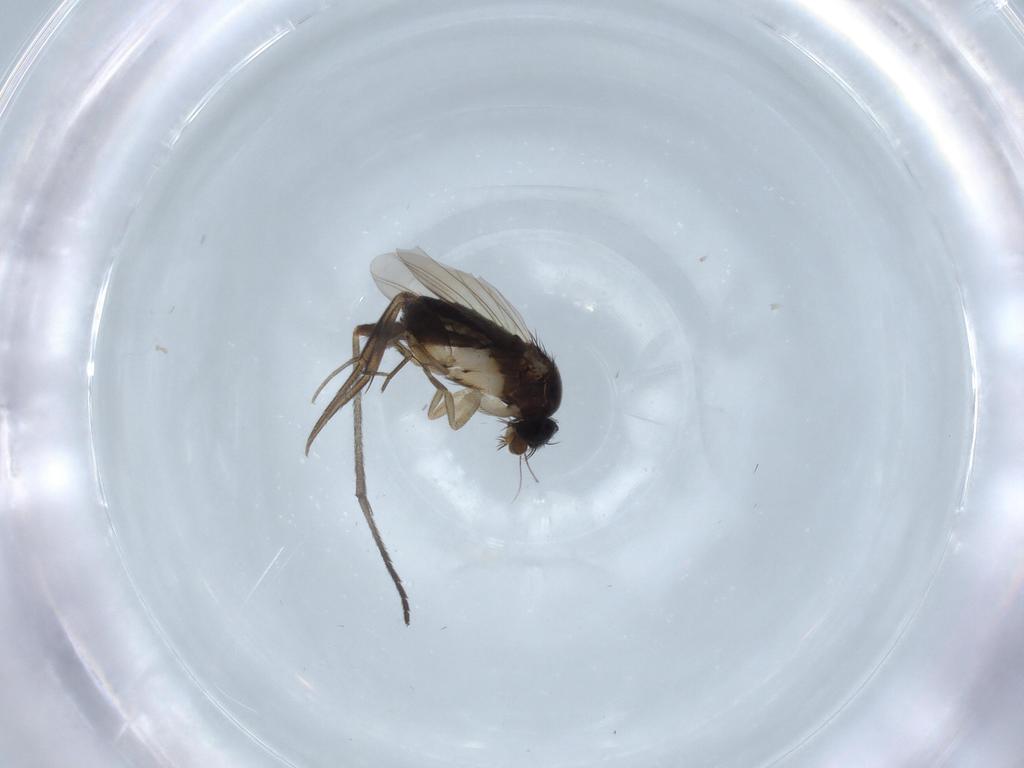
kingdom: Animalia
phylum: Arthropoda
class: Insecta
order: Diptera
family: Phoridae
